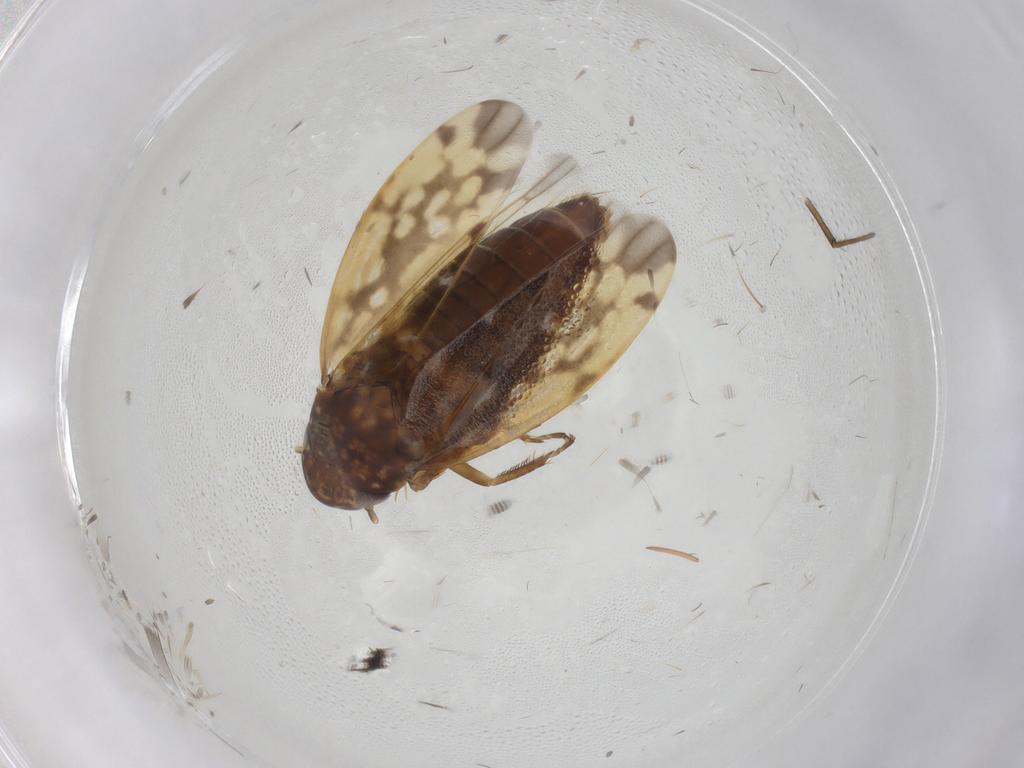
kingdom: Animalia
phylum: Arthropoda
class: Insecta
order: Hemiptera
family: Cicadellidae
